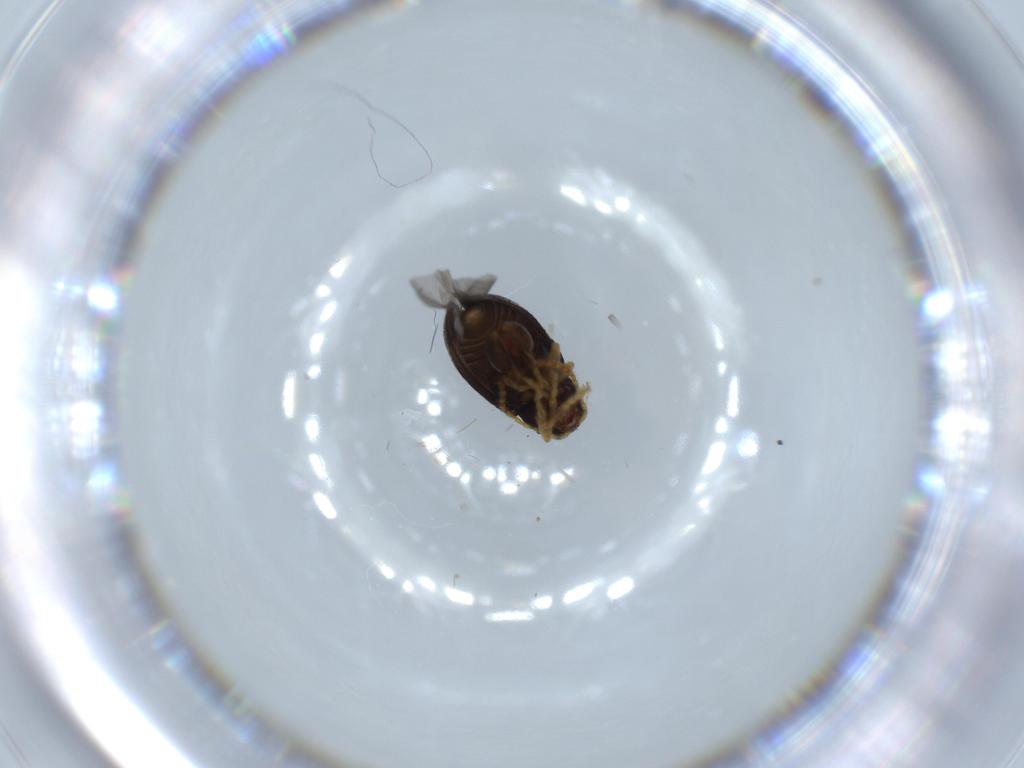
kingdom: Animalia
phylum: Arthropoda
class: Insecta
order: Coleoptera
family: Chrysomelidae
